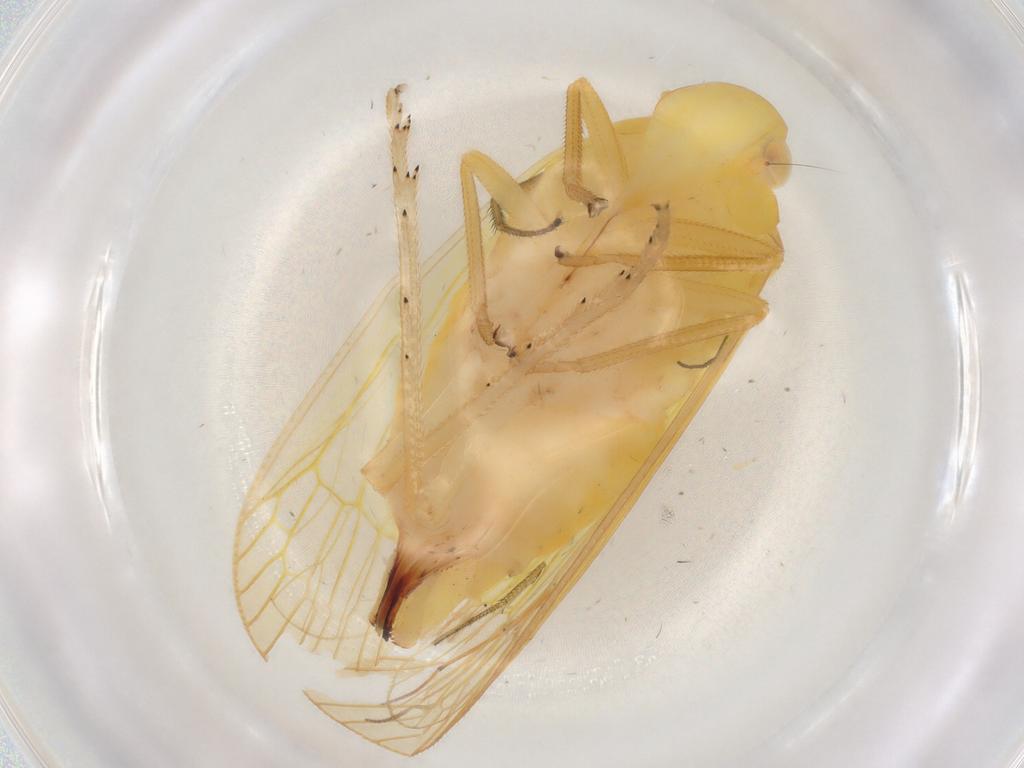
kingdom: Animalia
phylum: Arthropoda
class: Insecta
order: Hemiptera
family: Tropiduchidae
